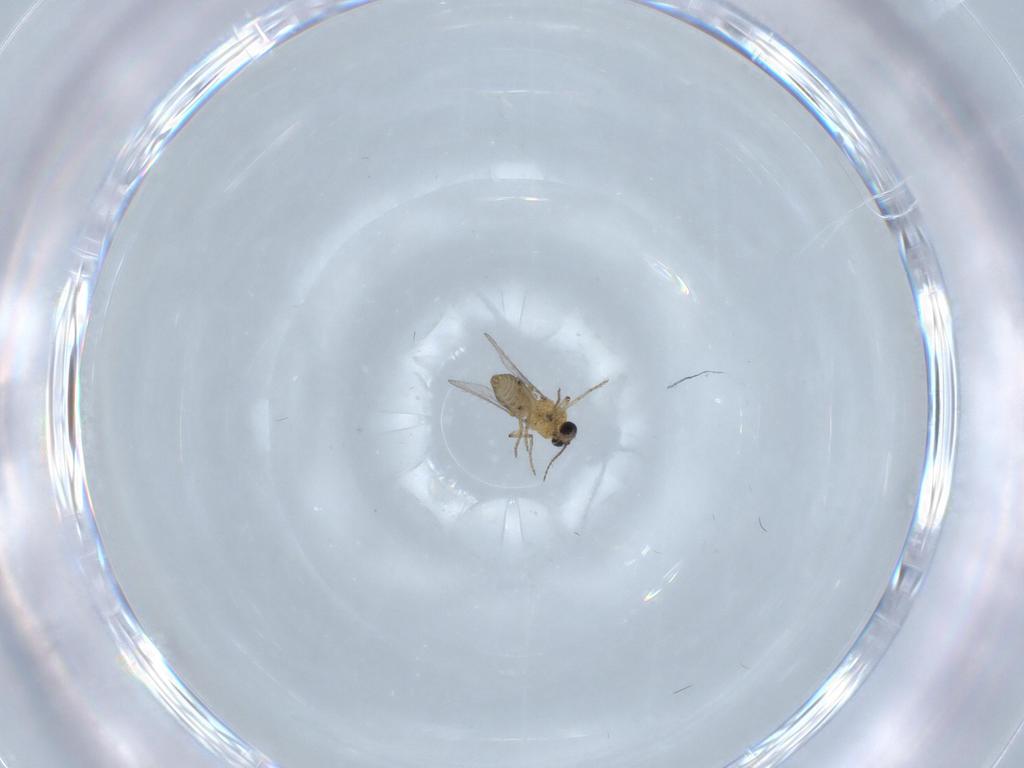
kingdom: Animalia
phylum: Arthropoda
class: Insecta
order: Diptera
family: Ceratopogonidae
